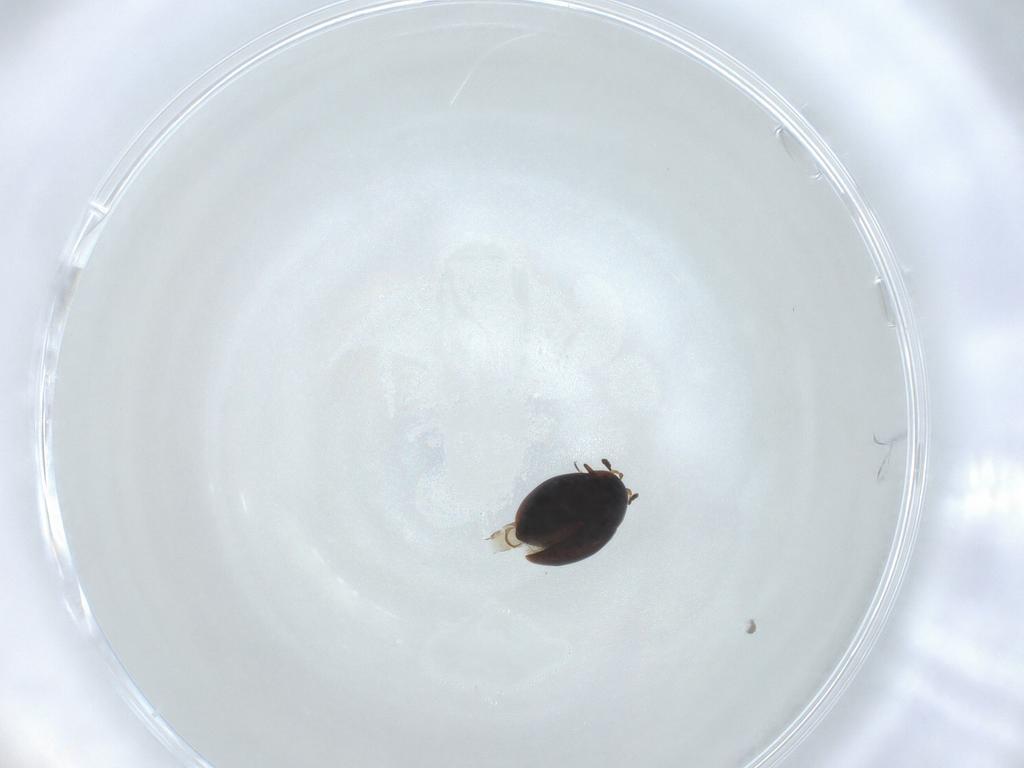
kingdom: Animalia
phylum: Arthropoda
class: Insecta
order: Coleoptera
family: Corylophidae
